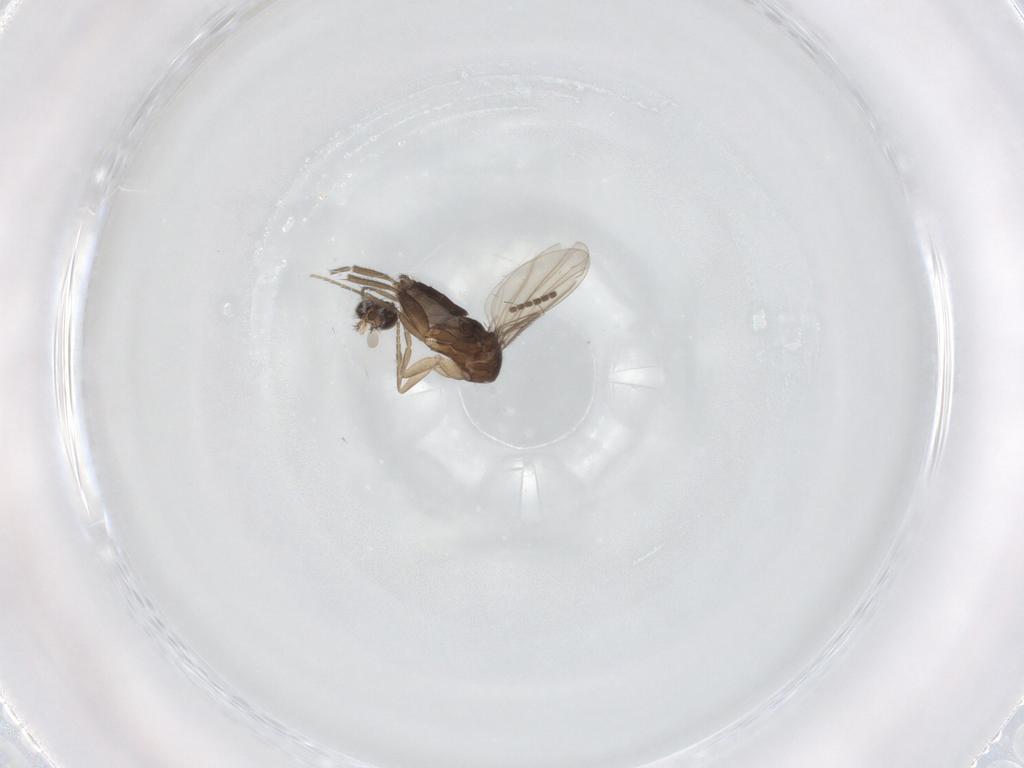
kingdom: Animalia
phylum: Arthropoda
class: Insecta
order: Diptera
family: Phoridae
